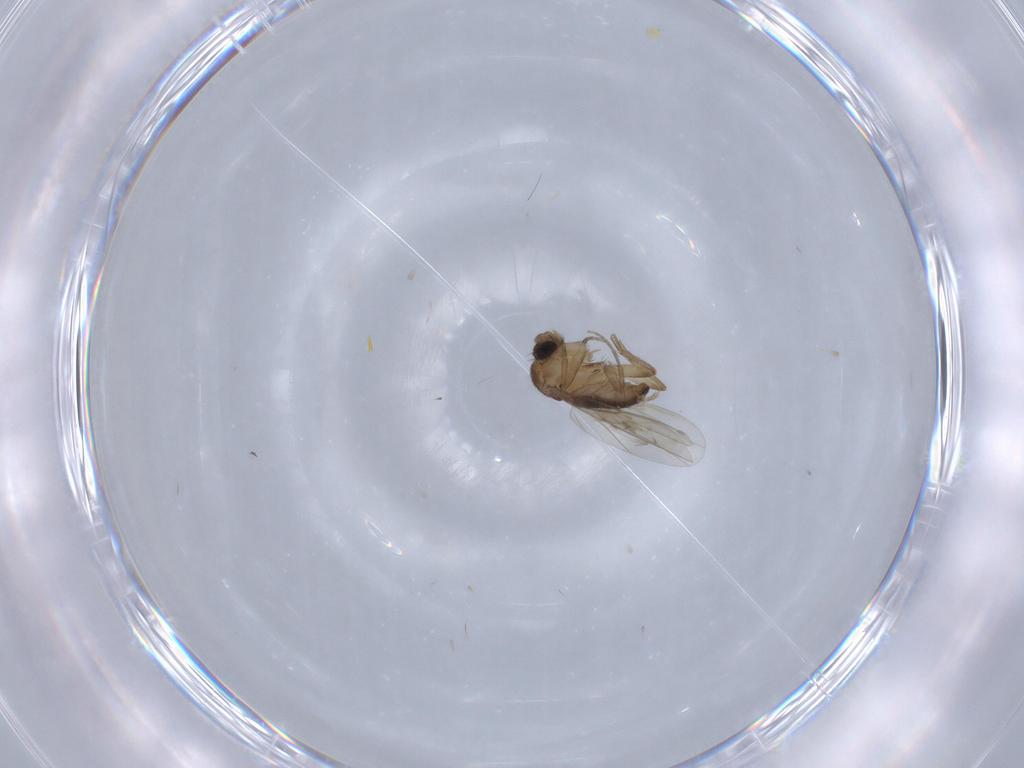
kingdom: Animalia
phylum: Arthropoda
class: Insecta
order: Diptera
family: Phoridae
